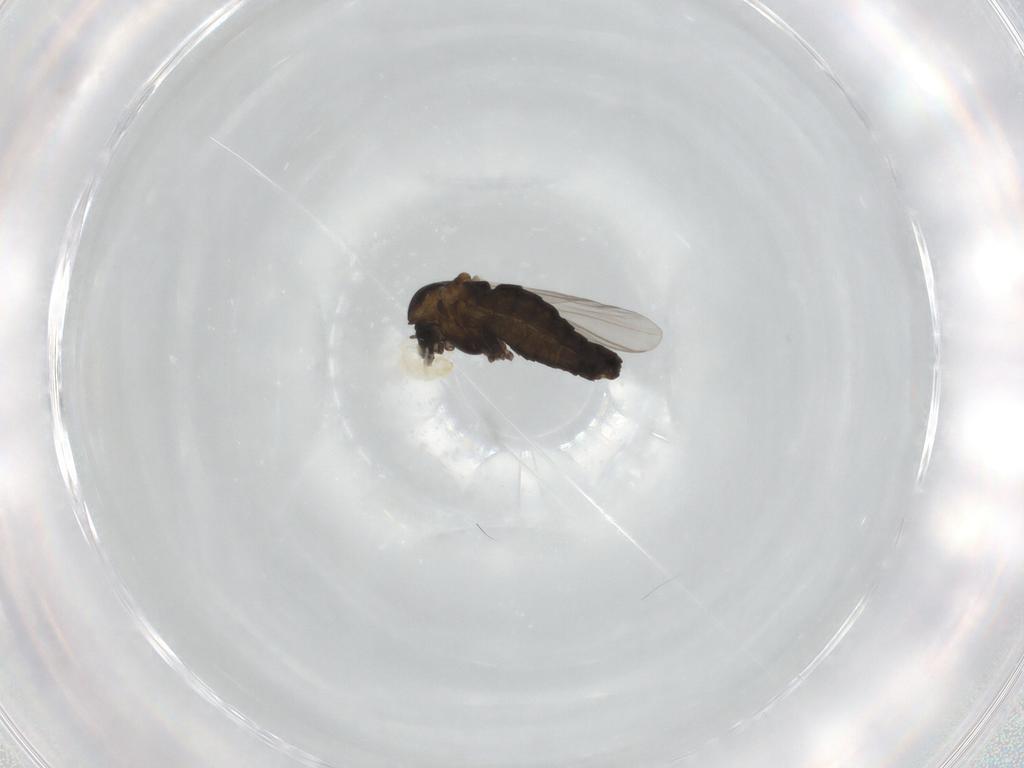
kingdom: Animalia
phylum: Arthropoda
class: Insecta
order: Diptera
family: Chironomidae
